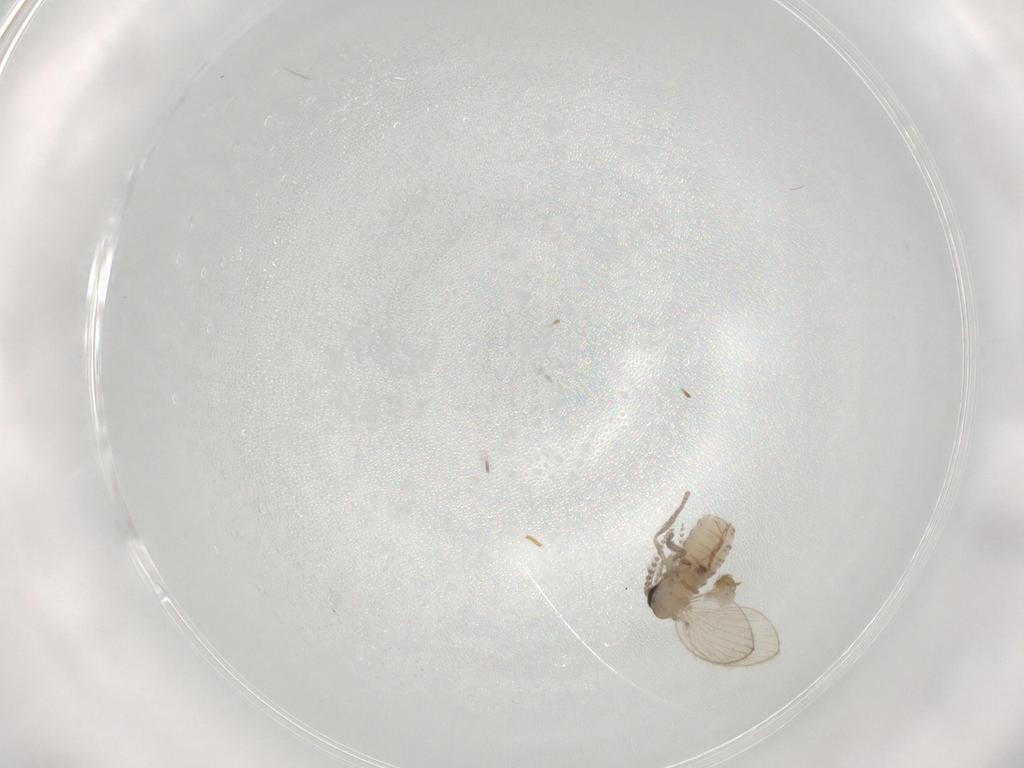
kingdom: Animalia
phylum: Arthropoda
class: Insecta
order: Diptera
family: Psychodidae
